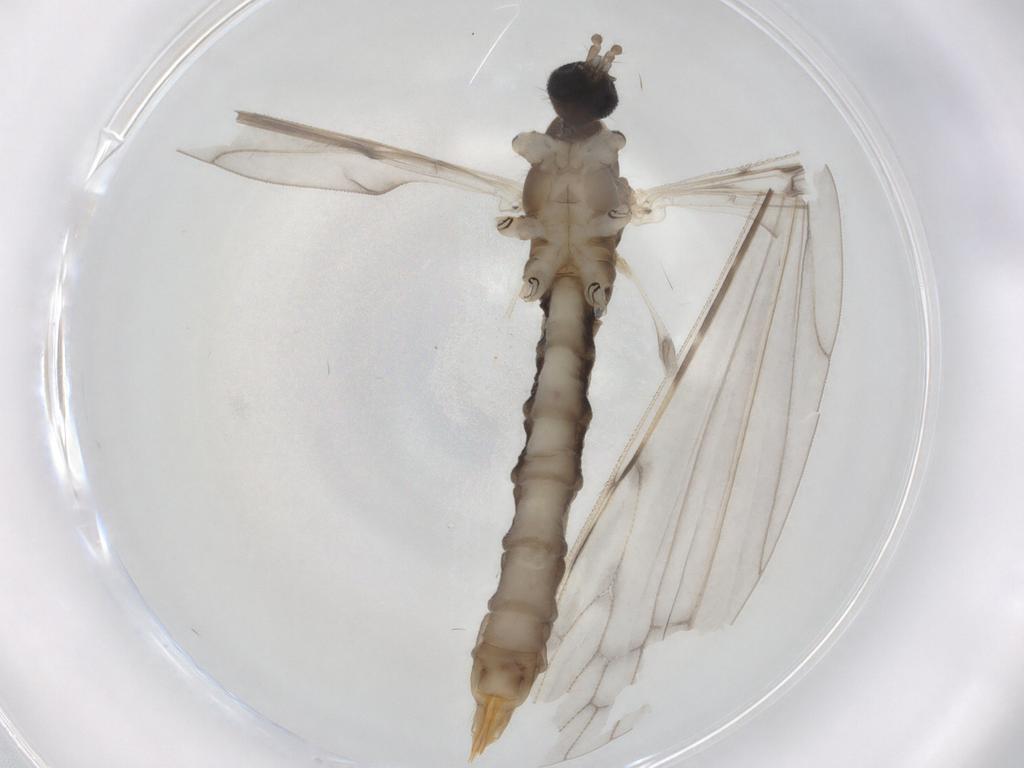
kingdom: Animalia
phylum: Arthropoda
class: Insecta
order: Diptera
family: Limoniidae
